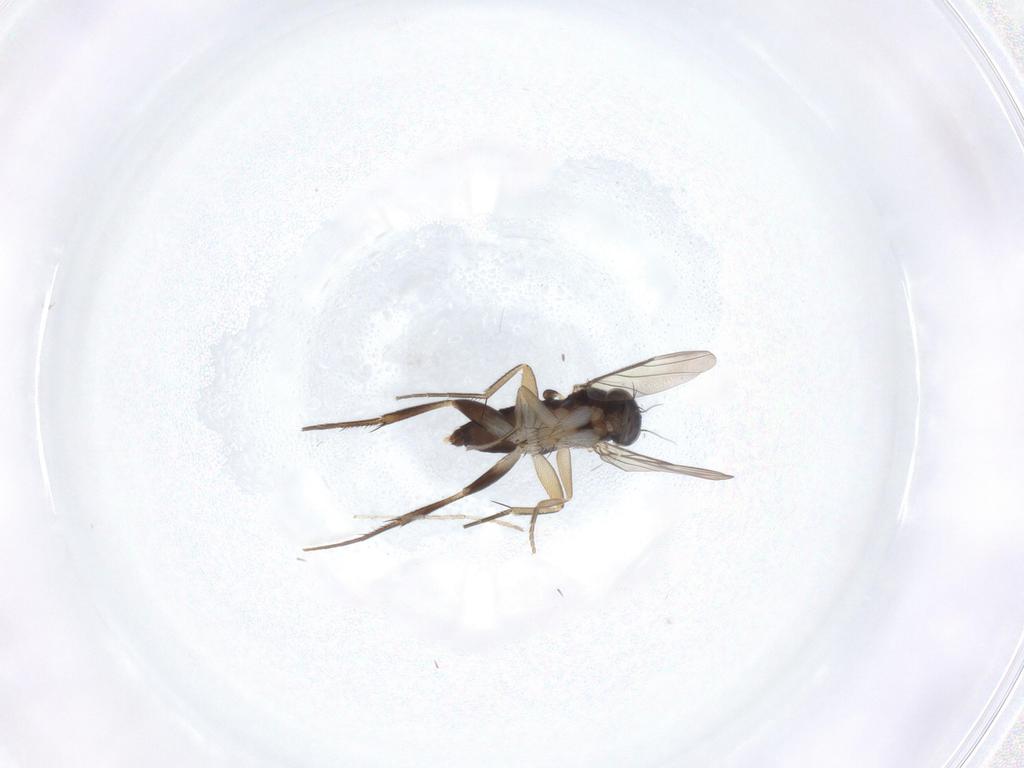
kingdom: Animalia
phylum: Arthropoda
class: Insecta
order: Diptera
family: Phoridae
